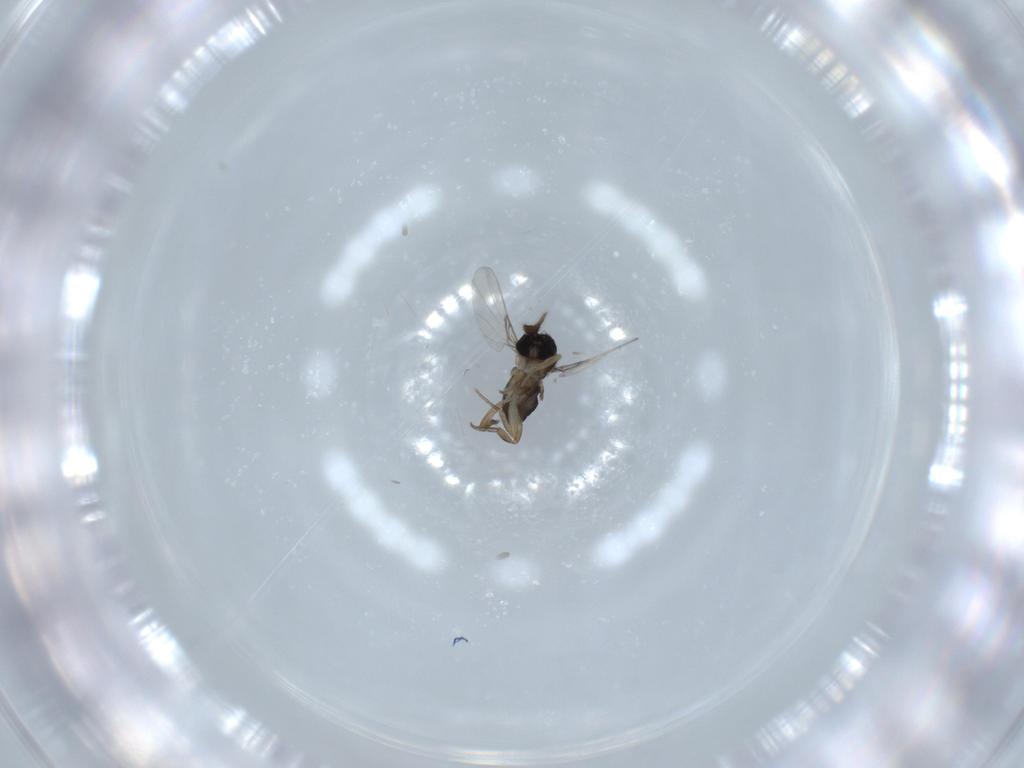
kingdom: Animalia
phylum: Arthropoda
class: Insecta
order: Diptera
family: Phoridae
